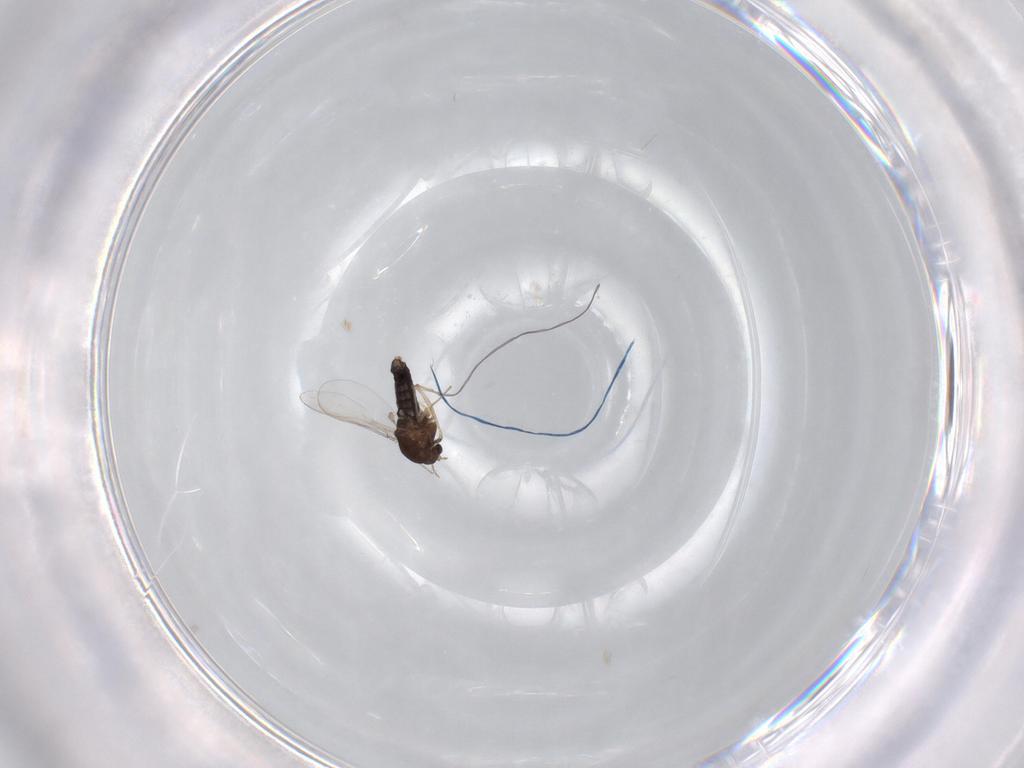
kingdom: Animalia
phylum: Arthropoda
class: Insecta
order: Diptera
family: Chironomidae
